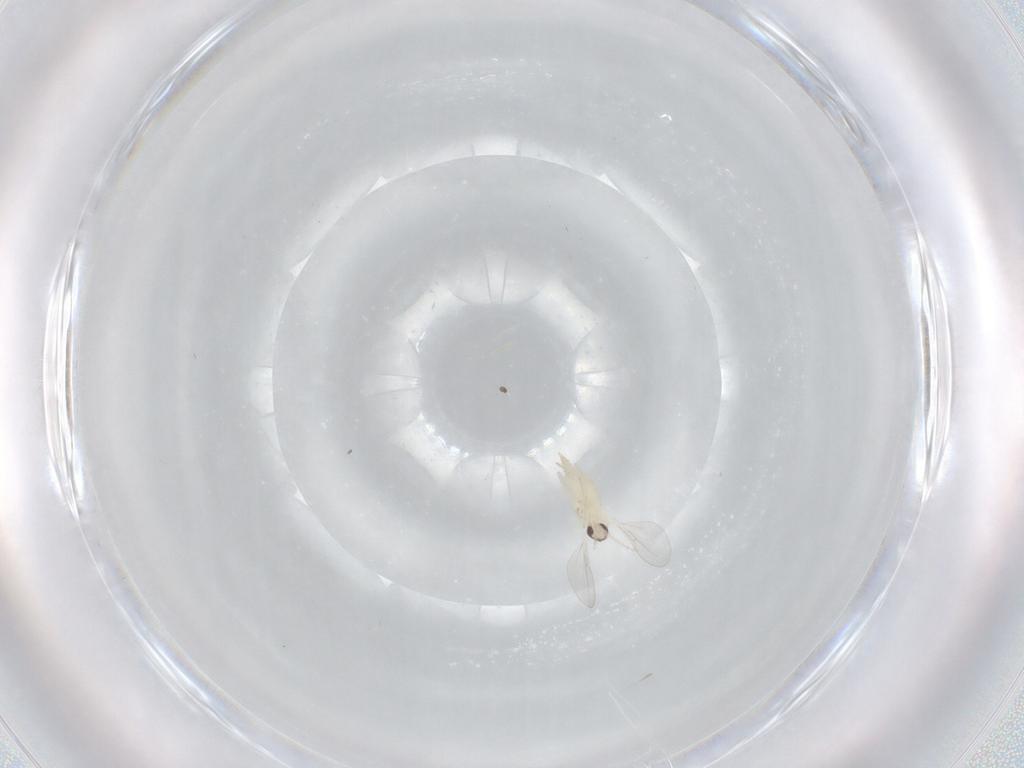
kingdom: Animalia
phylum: Arthropoda
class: Insecta
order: Diptera
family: Cecidomyiidae
